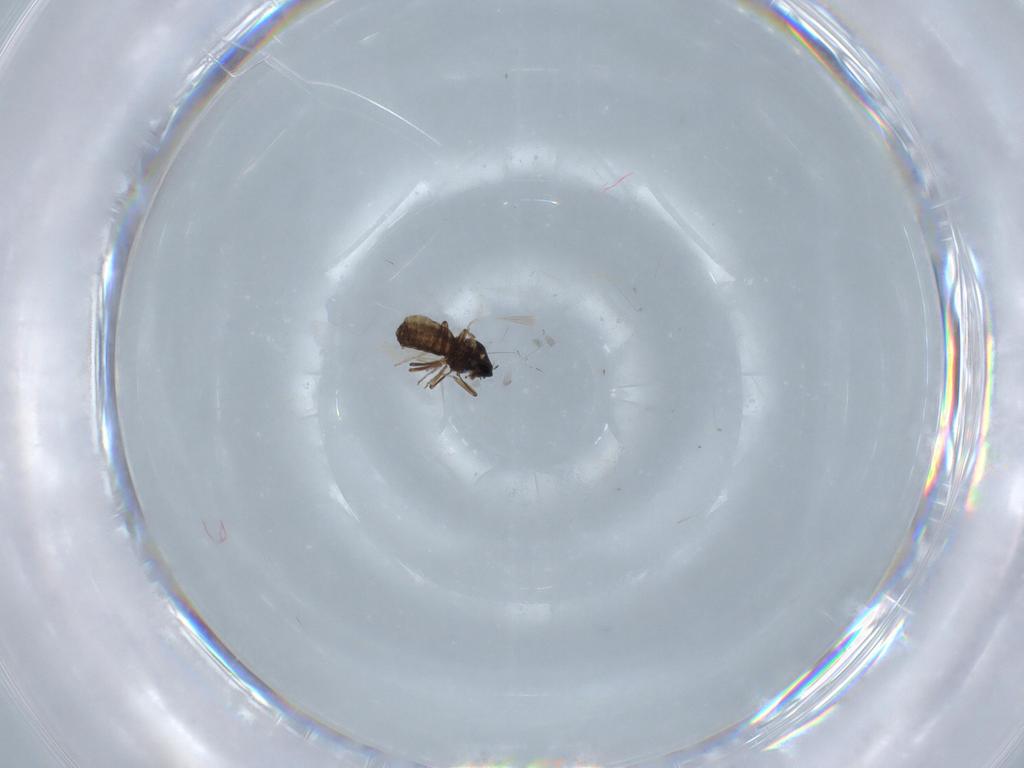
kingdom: Animalia
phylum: Arthropoda
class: Insecta
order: Diptera
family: Ceratopogonidae
